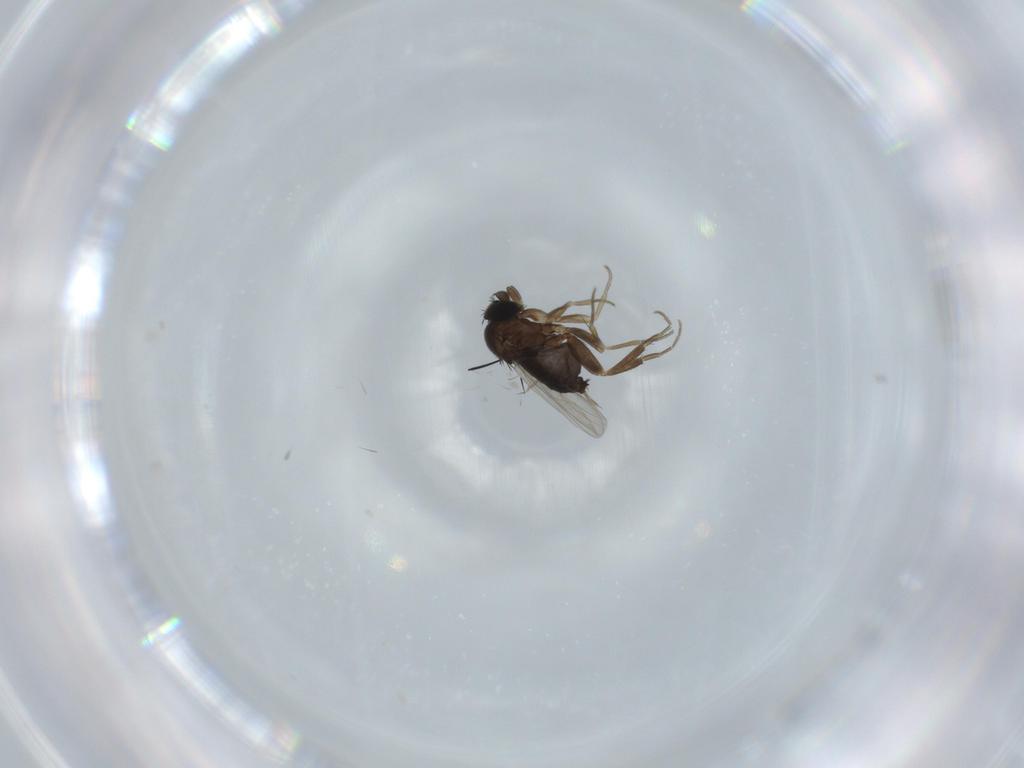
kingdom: Animalia
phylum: Arthropoda
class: Insecta
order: Diptera
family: Phoridae
